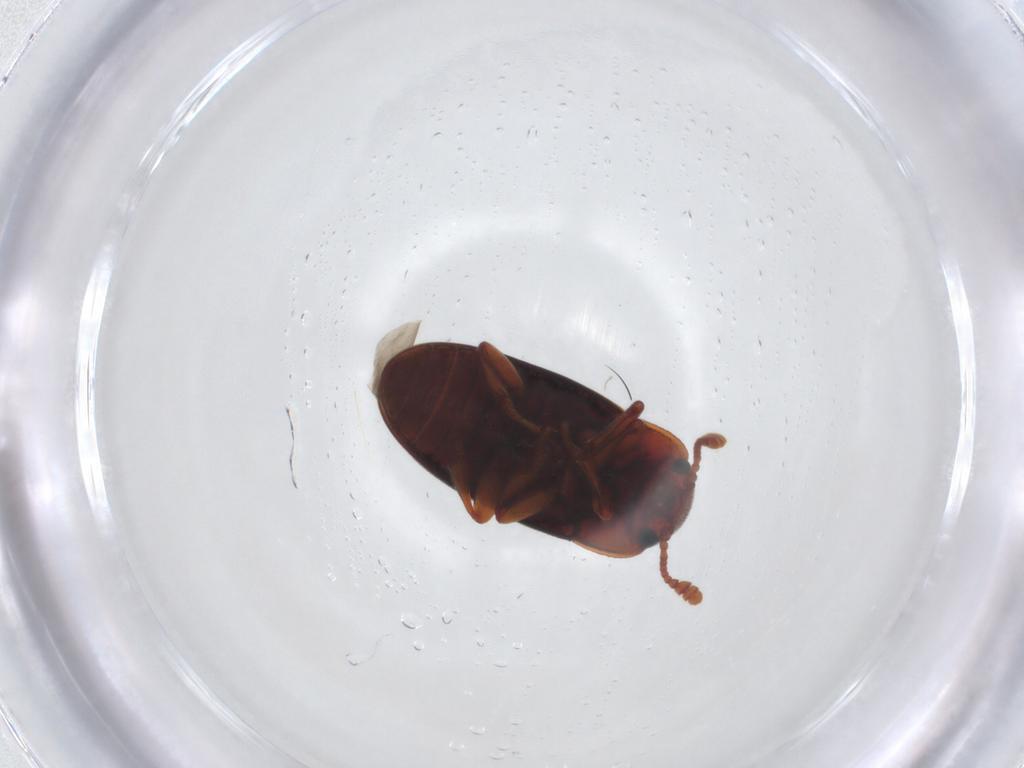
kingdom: Animalia
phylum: Arthropoda
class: Insecta
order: Coleoptera
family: Erotylidae
